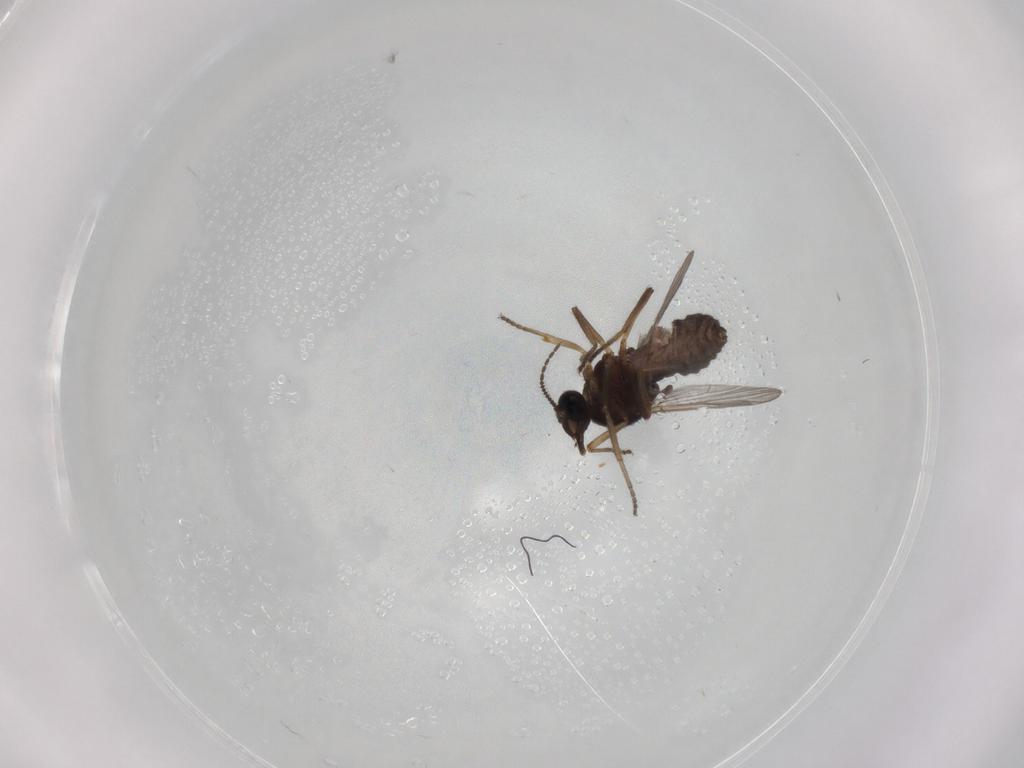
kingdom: Animalia
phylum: Arthropoda
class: Insecta
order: Diptera
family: Ceratopogonidae
